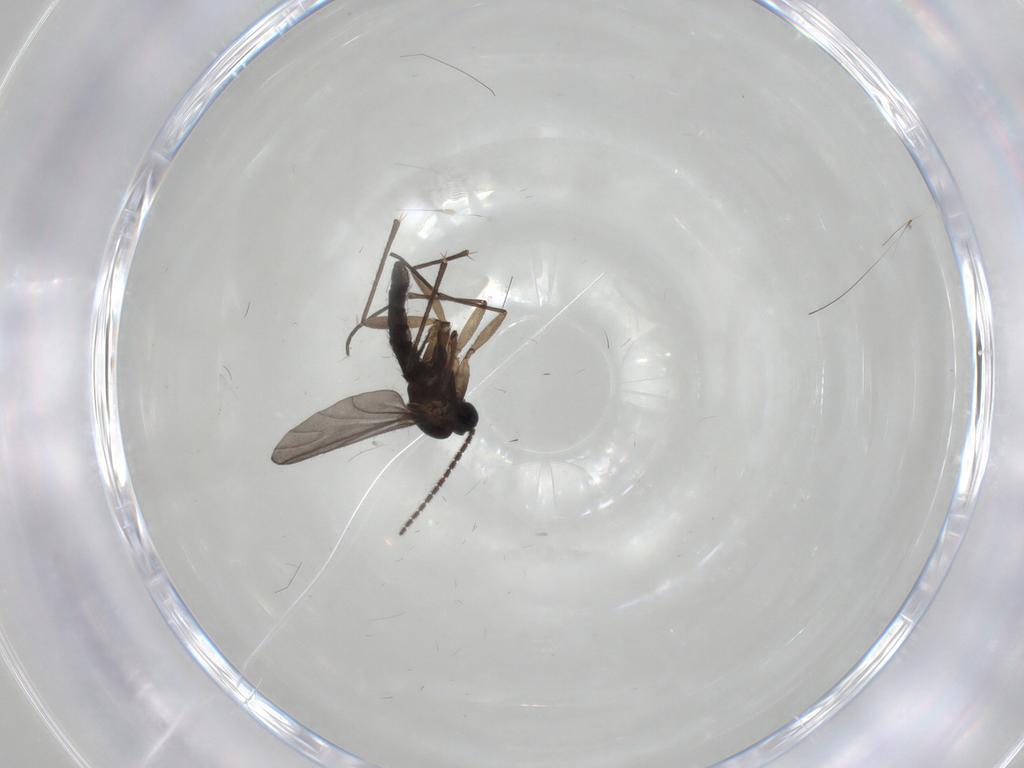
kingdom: Animalia
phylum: Arthropoda
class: Insecta
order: Diptera
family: Sciaridae
